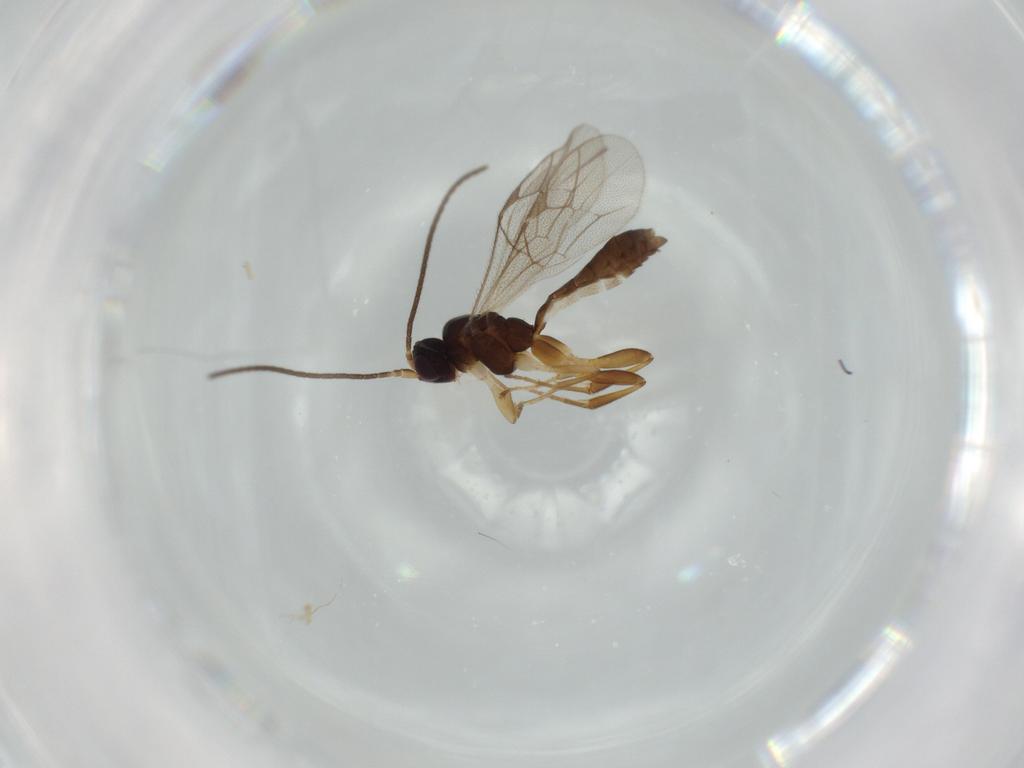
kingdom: Animalia
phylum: Arthropoda
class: Insecta
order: Hymenoptera
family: Ichneumonidae
